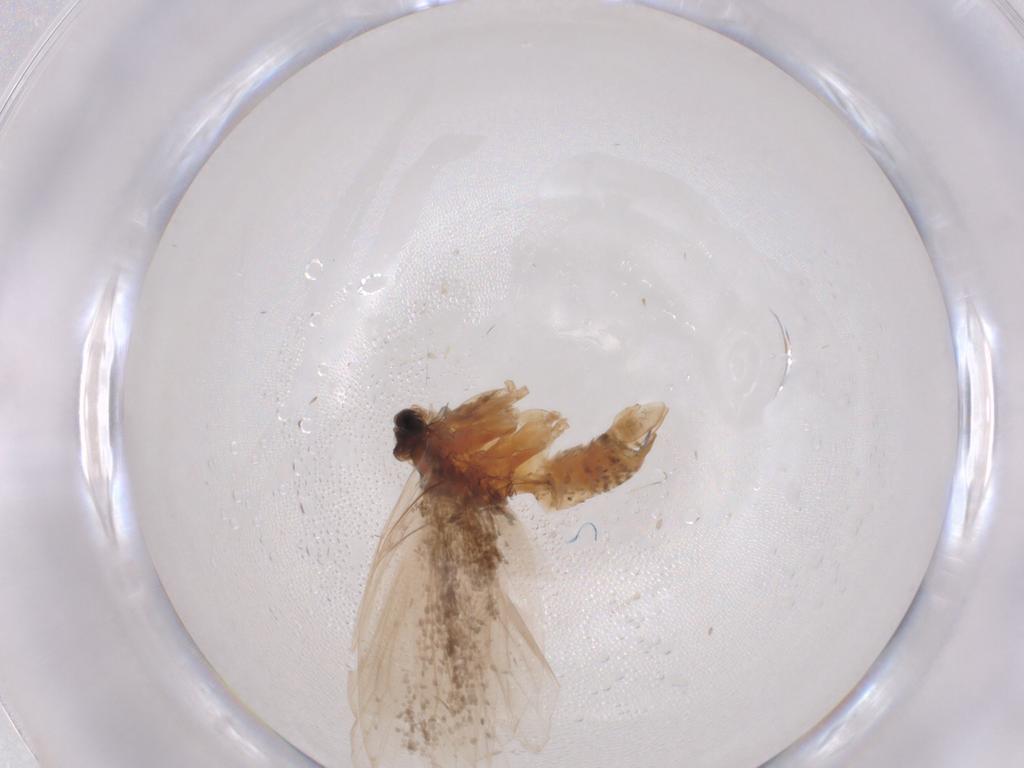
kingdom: Animalia
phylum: Arthropoda
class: Insecta
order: Lepidoptera
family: Tineidae
